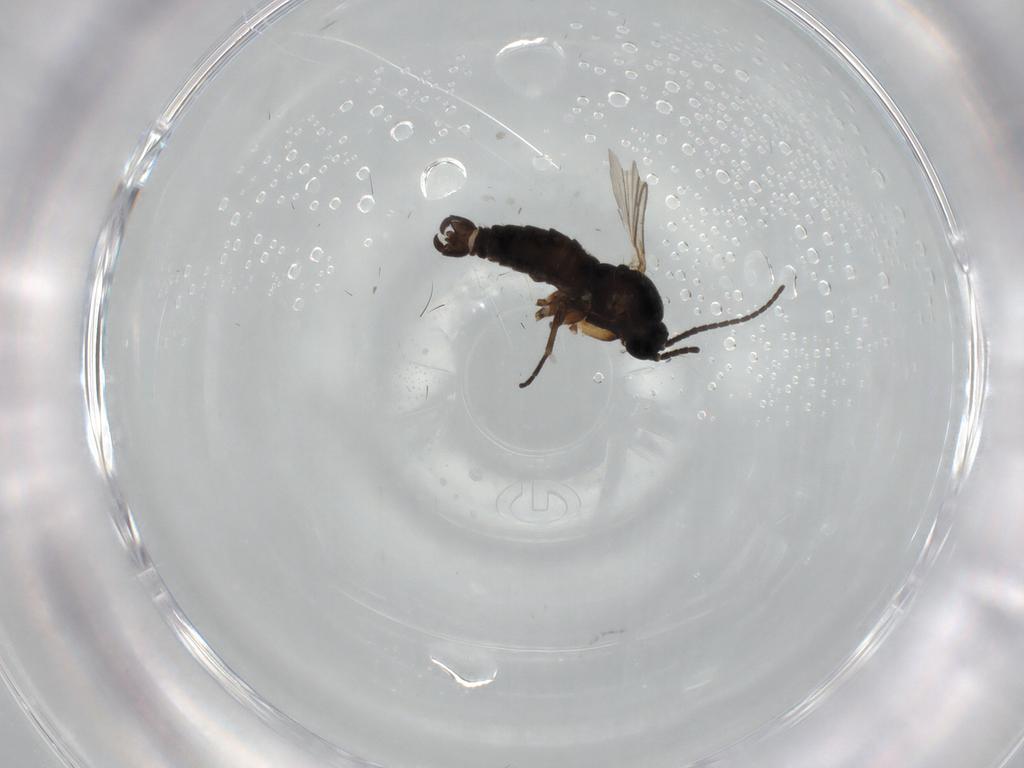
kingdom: Animalia
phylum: Arthropoda
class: Insecta
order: Diptera
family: Sciaridae
